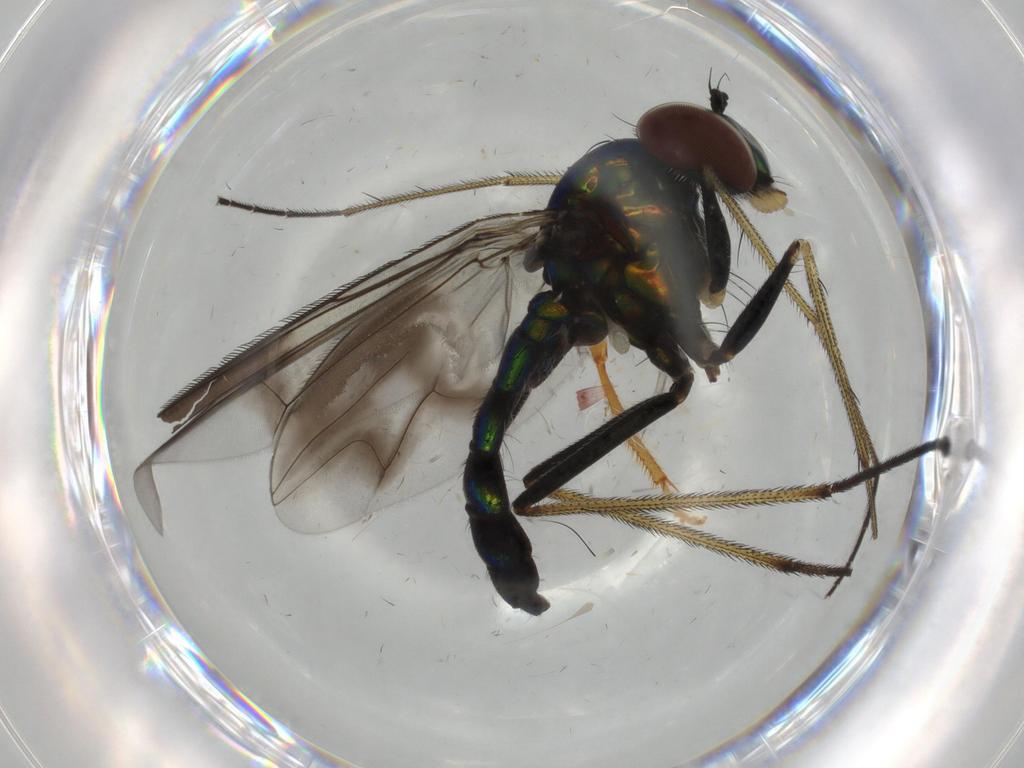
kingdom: Animalia
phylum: Arthropoda
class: Insecta
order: Diptera
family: Dolichopodidae
